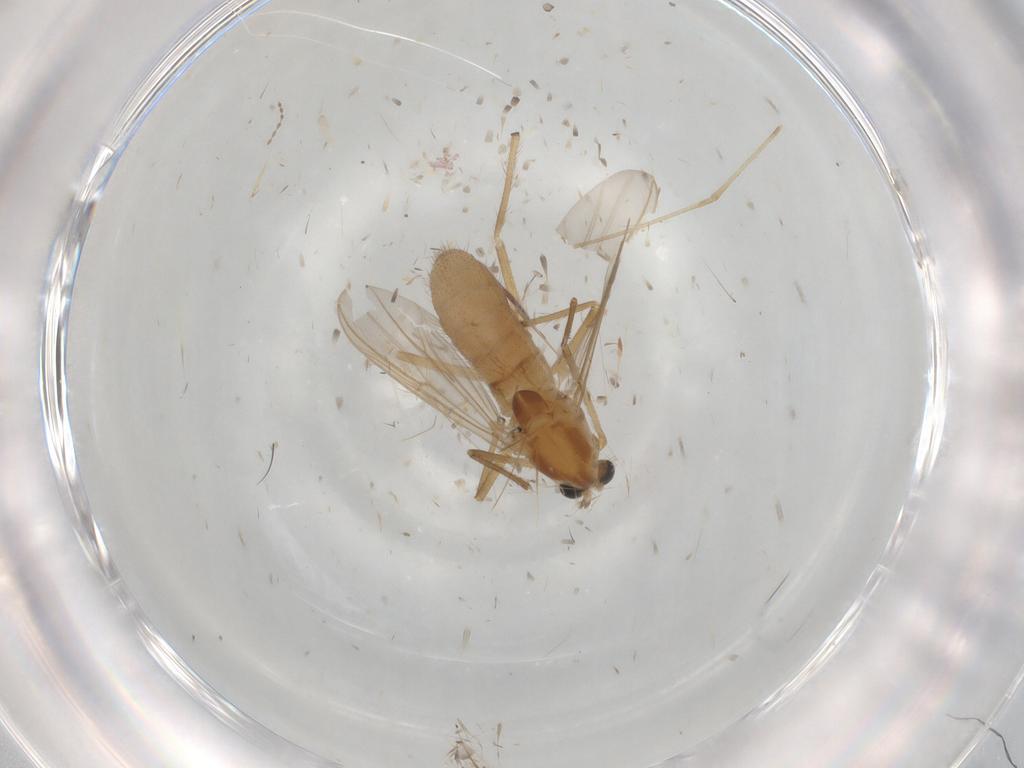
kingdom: Animalia
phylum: Arthropoda
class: Insecta
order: Diptera
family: Chironomidae
